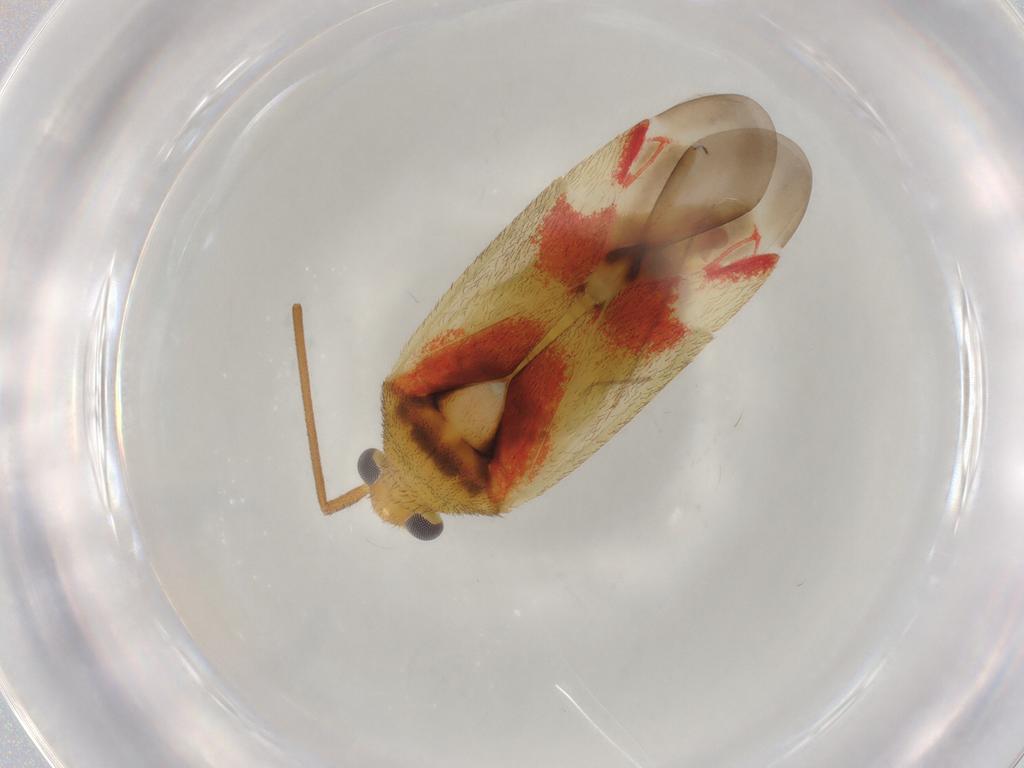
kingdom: Animalia
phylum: Arthropoda
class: Insecta
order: Hemiptera
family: Miridae
